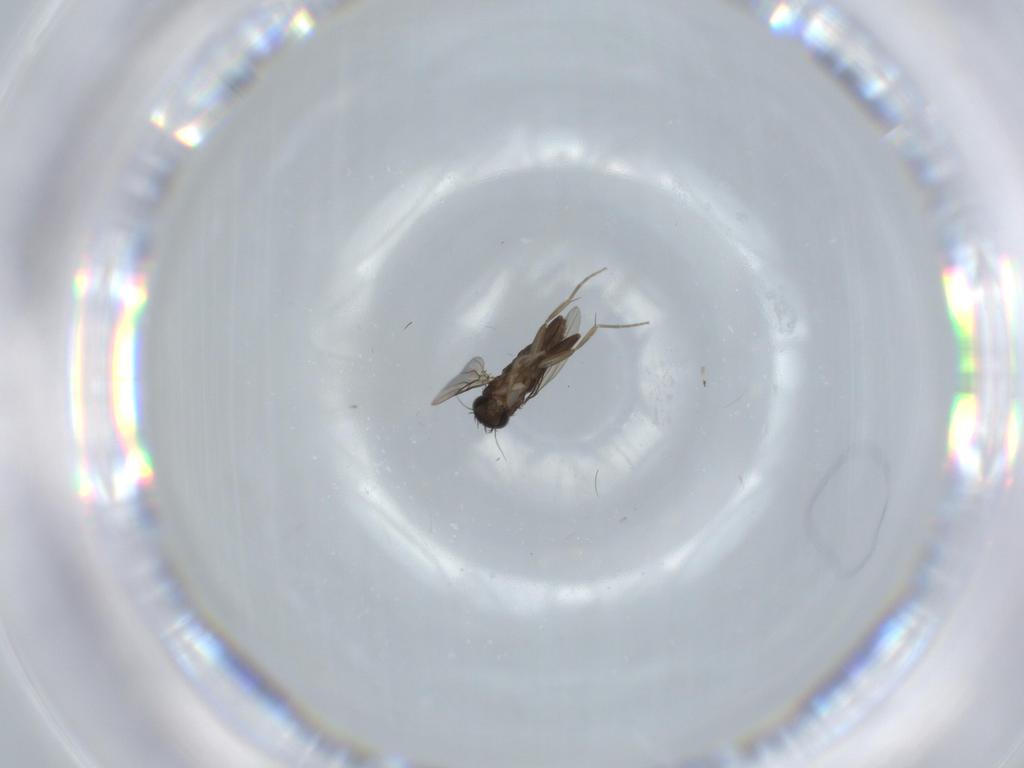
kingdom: Animalia
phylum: Arthropoda
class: Insecta
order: Diptera
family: Phoridae
